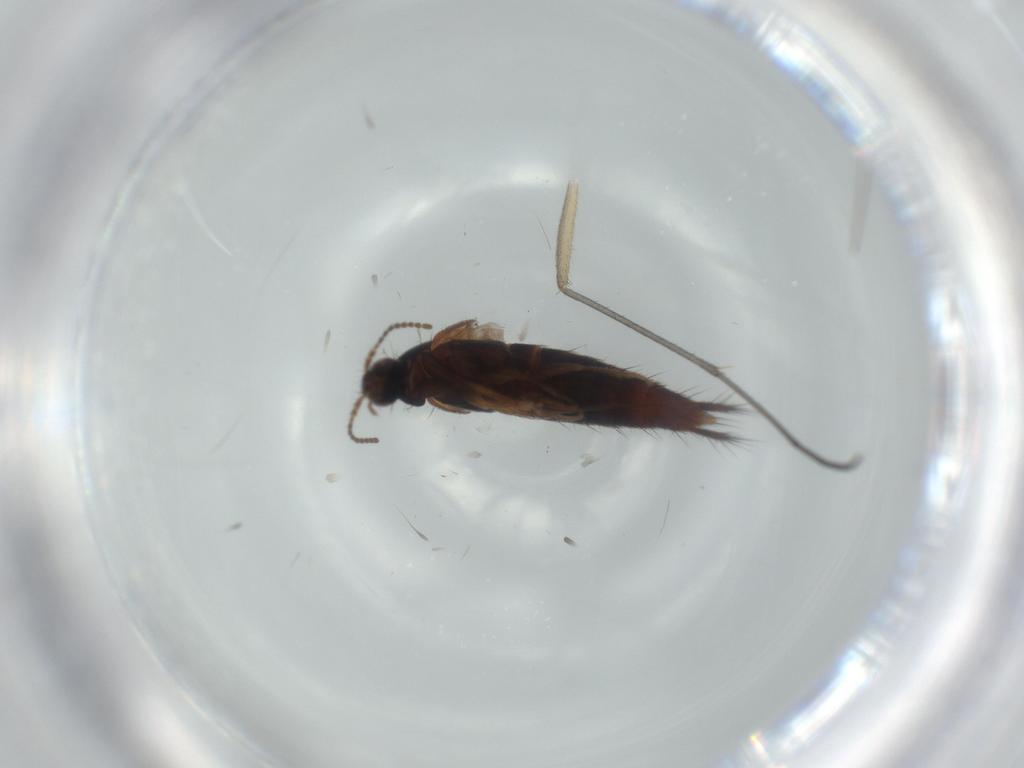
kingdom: Animalia
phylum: Arthropoda
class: Insecta
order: Coleoptera
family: Staphylinidae
